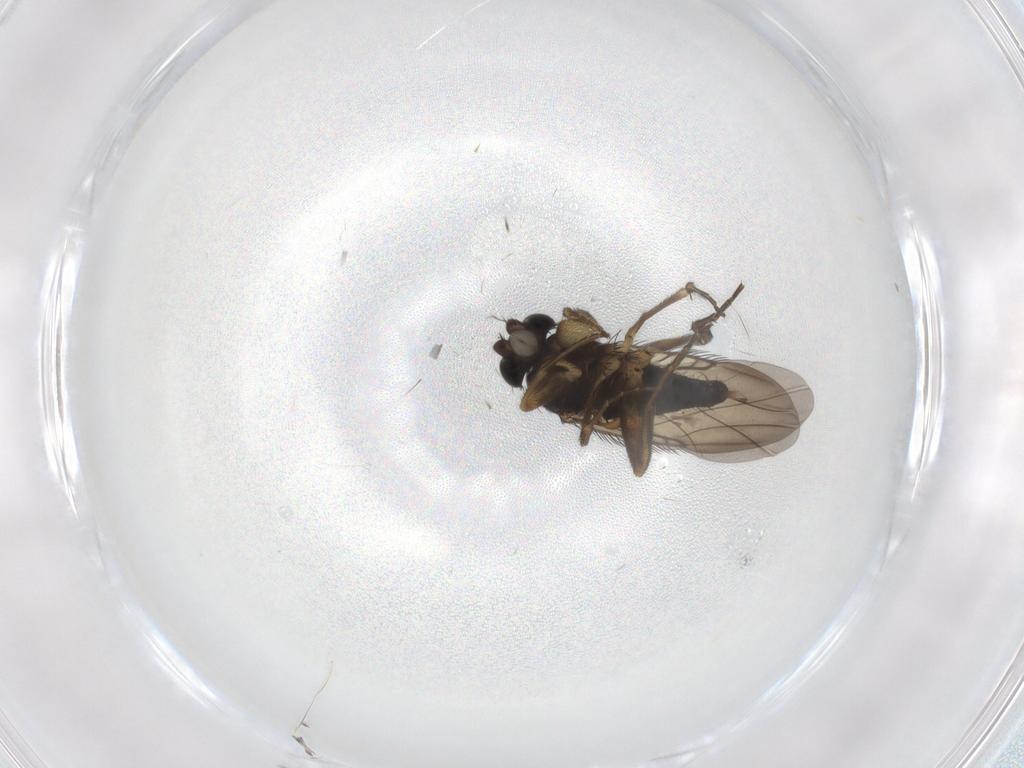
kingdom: Animalia
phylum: Arthropoda
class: Insecta
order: Diptera
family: Phoridae
